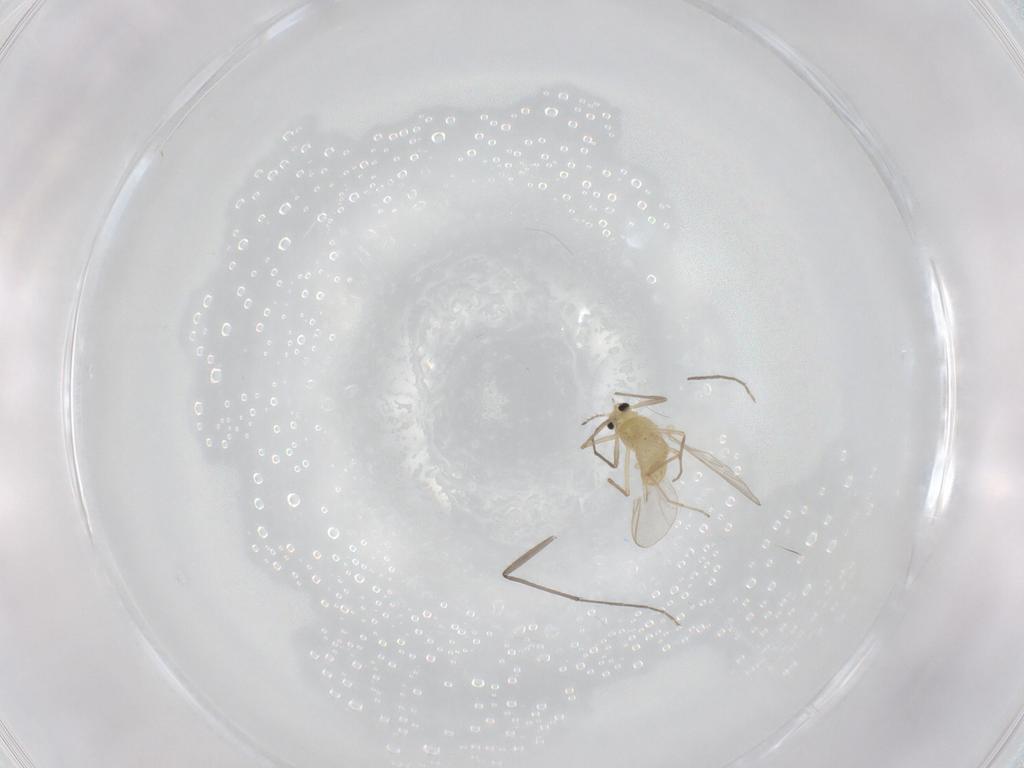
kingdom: Animalia
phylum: Arthropoda
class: Insecta
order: Diptera
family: Chironomidae
